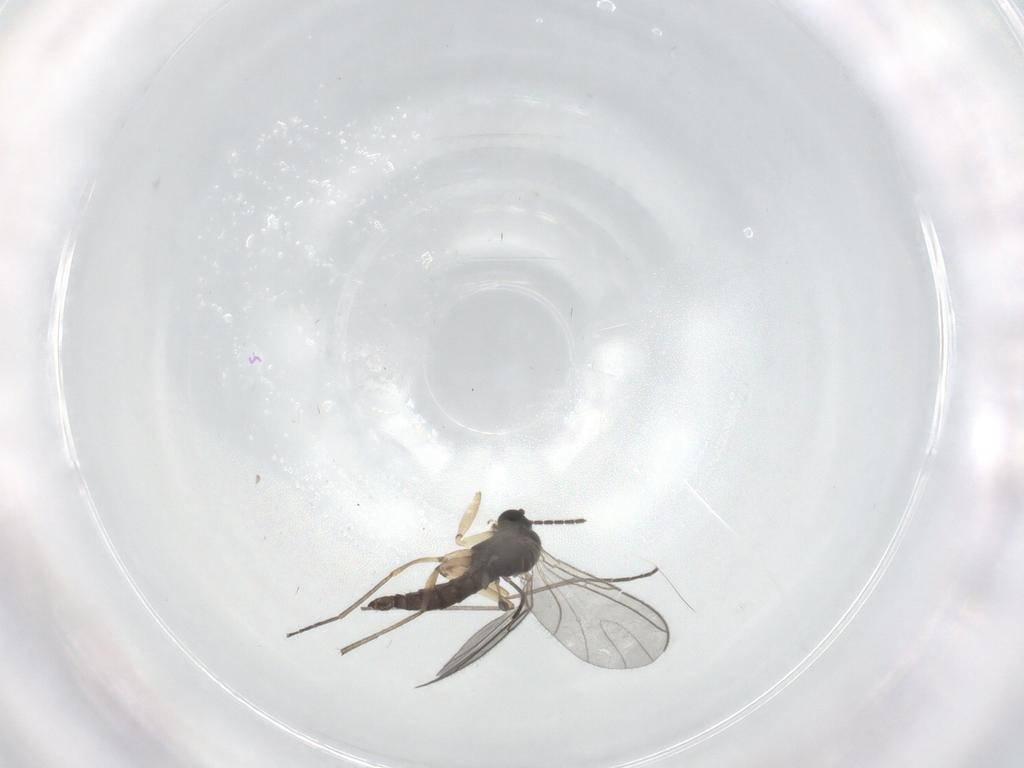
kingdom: Animalia
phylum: Arthropoda
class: Insecta
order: Diptera
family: Sciaridae
